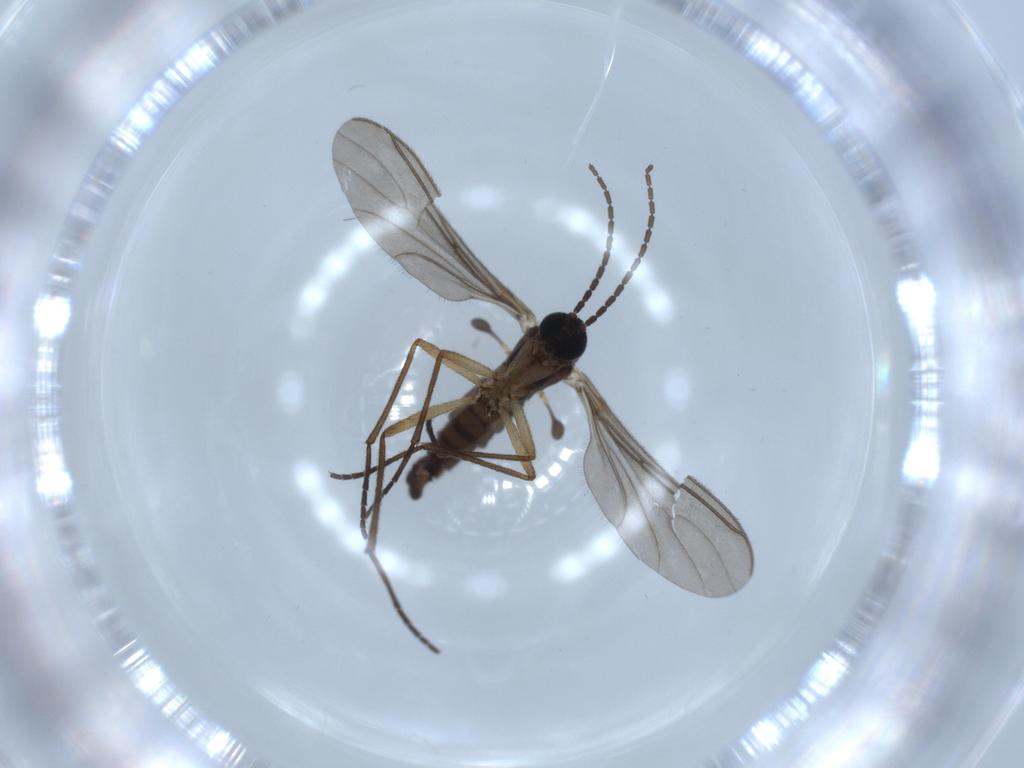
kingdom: Animalia
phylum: Arthropoda
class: Insecta
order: Diptera
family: Sciaridae
